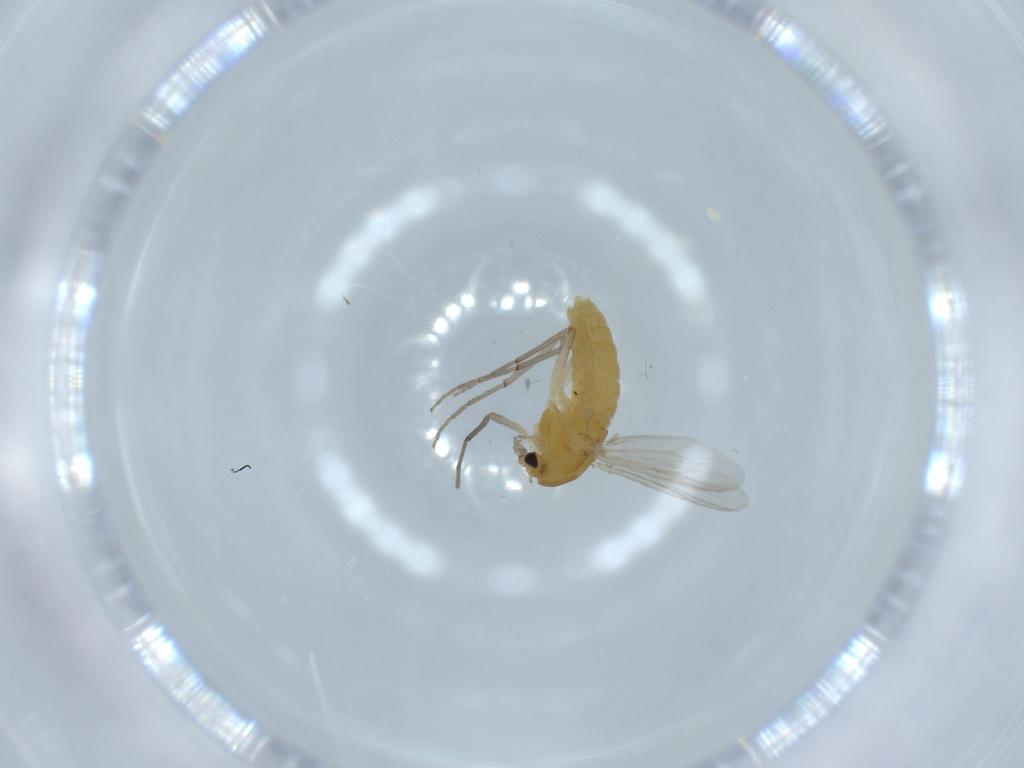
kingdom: Animalia
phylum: Arthropoda
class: Insecta
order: Diptera
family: Chironomidae
